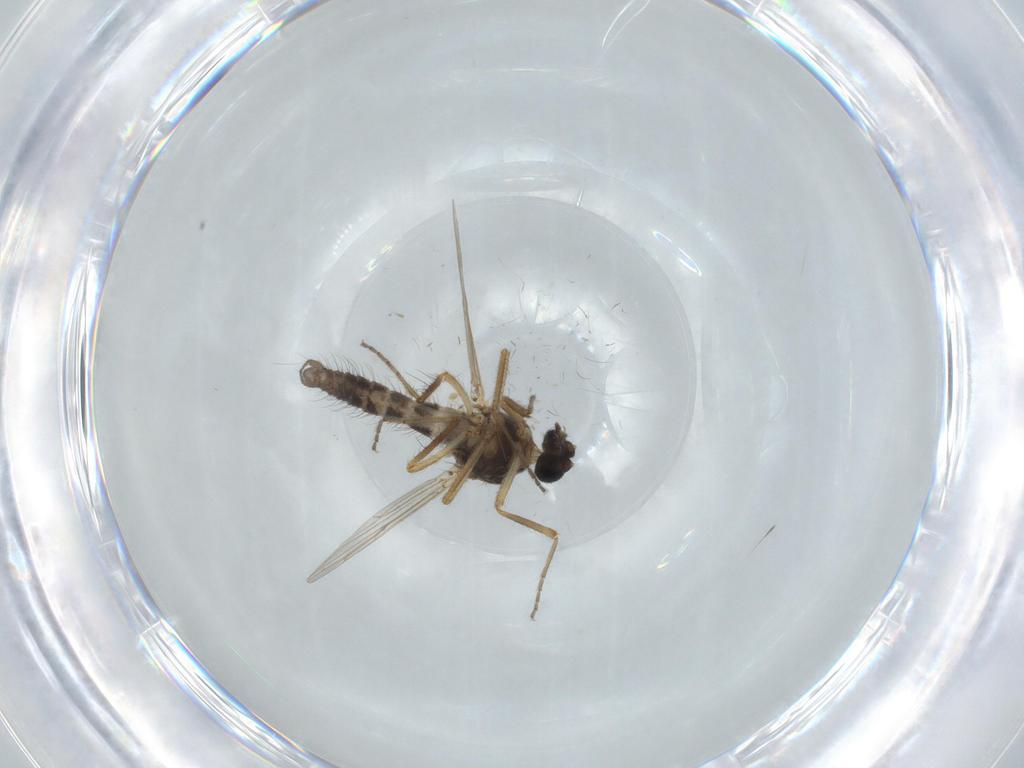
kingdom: Animalia
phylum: Arthropoda
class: Insecta
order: Diptera
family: Ceratopogonidae
